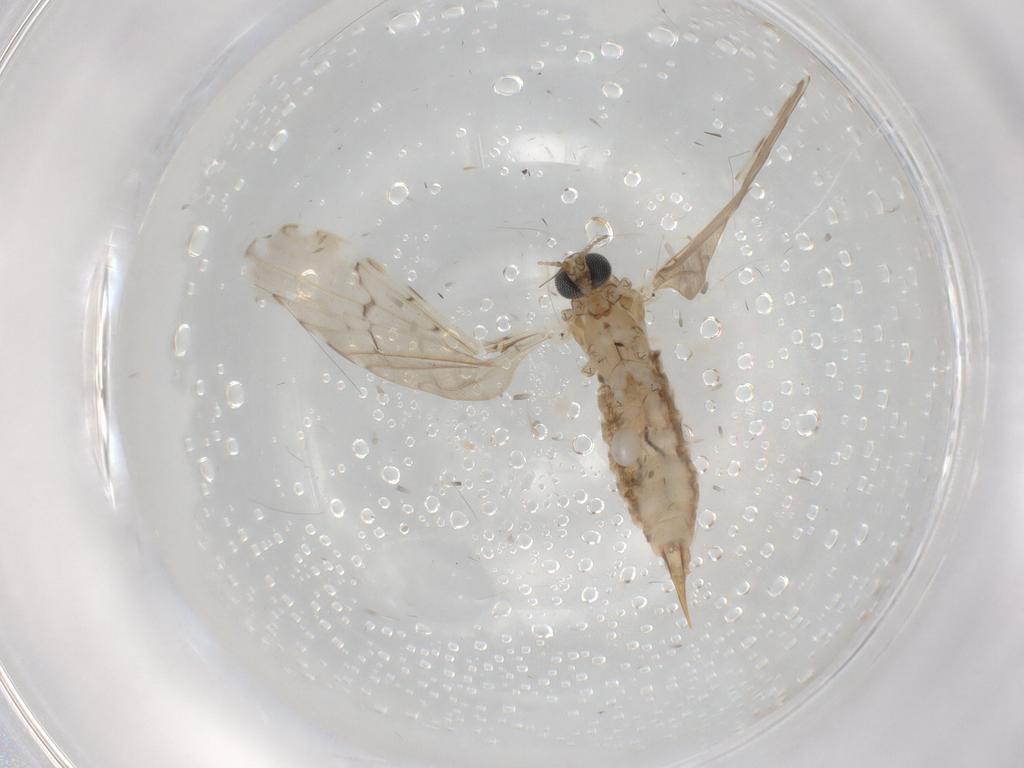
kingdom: Animalia
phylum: Arthropoda
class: Insecta
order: Diptera
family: Limoniidae
